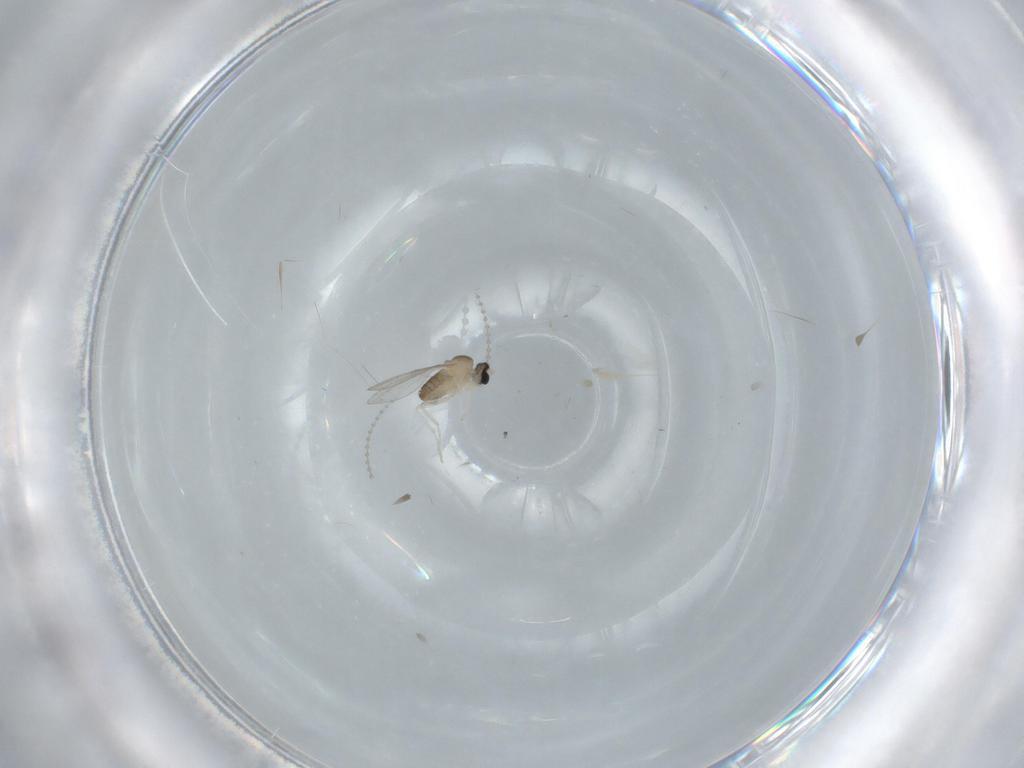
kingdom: Animalia
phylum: Arthropoda
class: Insecta
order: Diptera
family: Cecidomyiidae
